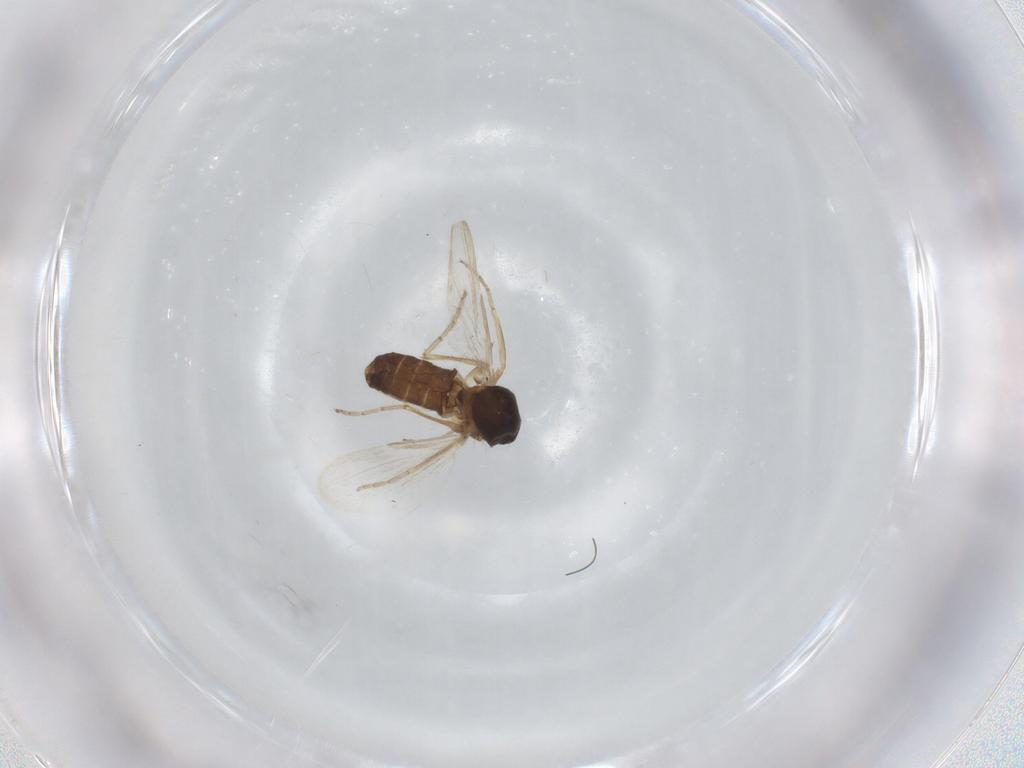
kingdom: Animalia
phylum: Arthropoda
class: Insecta
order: Diptera
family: Ceratopogonidae
